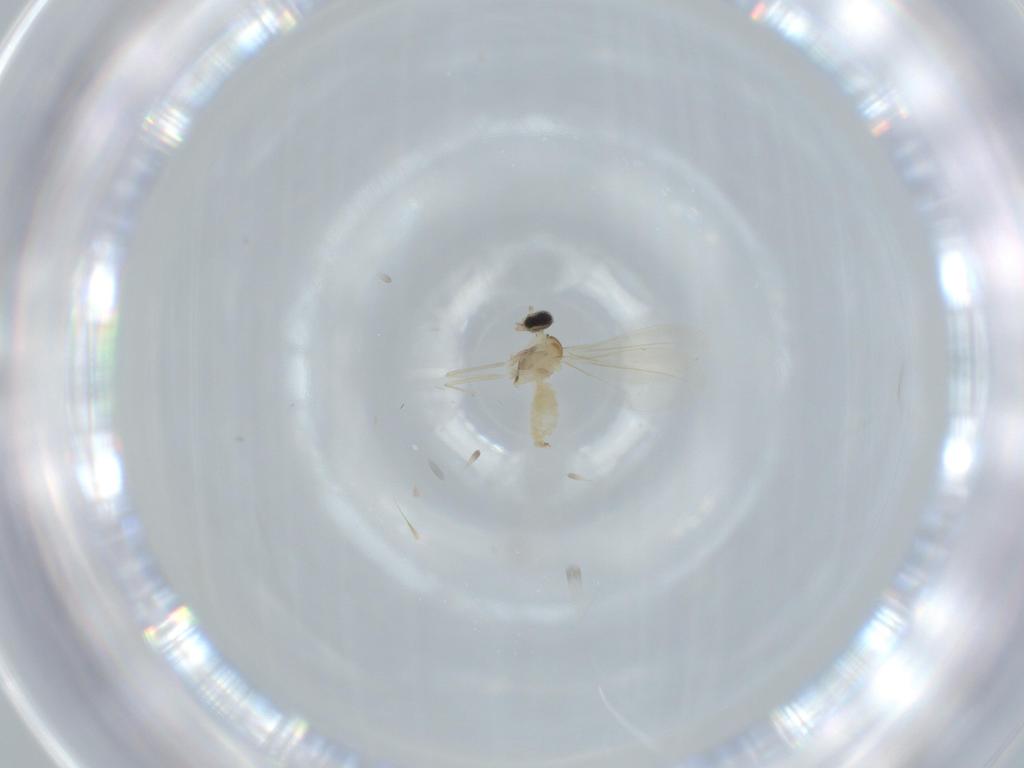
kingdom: Animalia
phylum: Arthropoda
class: Insecta
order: Diptera
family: Cecidomyiidae
